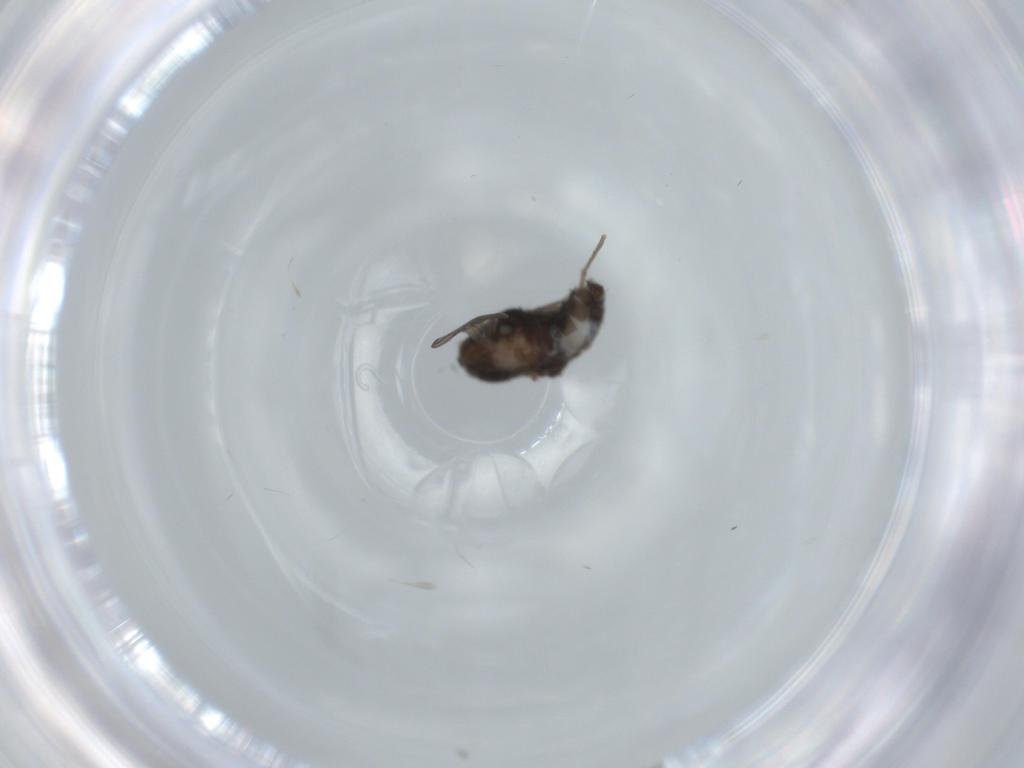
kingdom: Animalia
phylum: Arthropoda
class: Insecta
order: Diptera
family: Psychodidae
